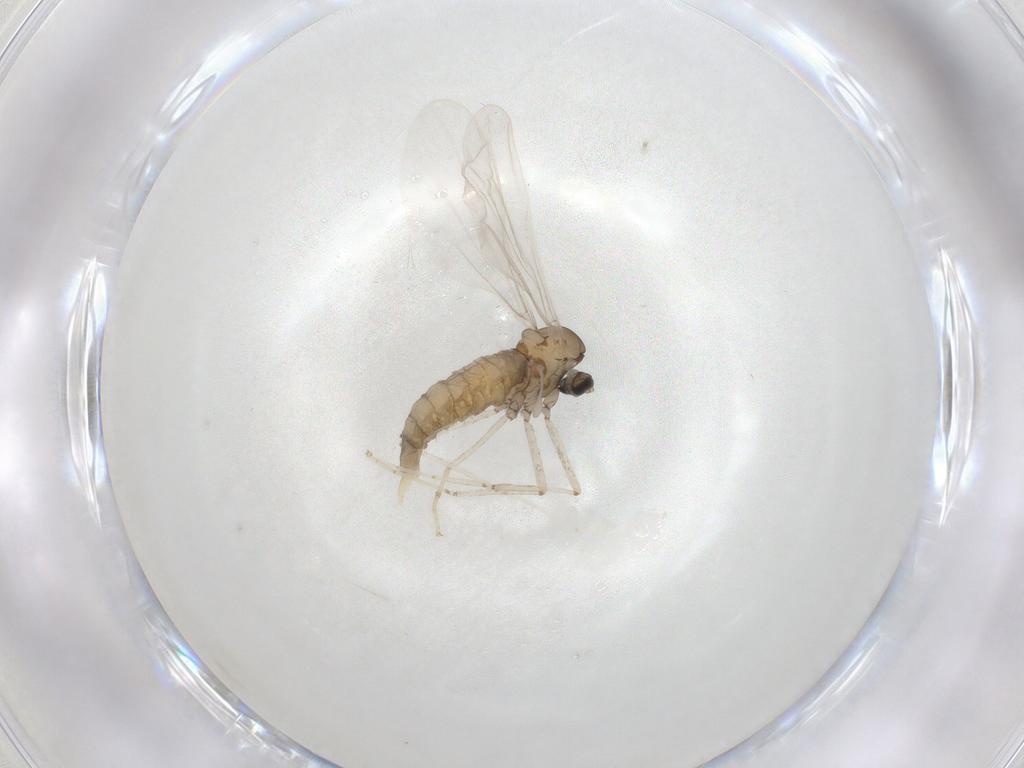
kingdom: Animalia
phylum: Arthropoda
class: Insecta
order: Diptera
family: Cecidomyiidae
